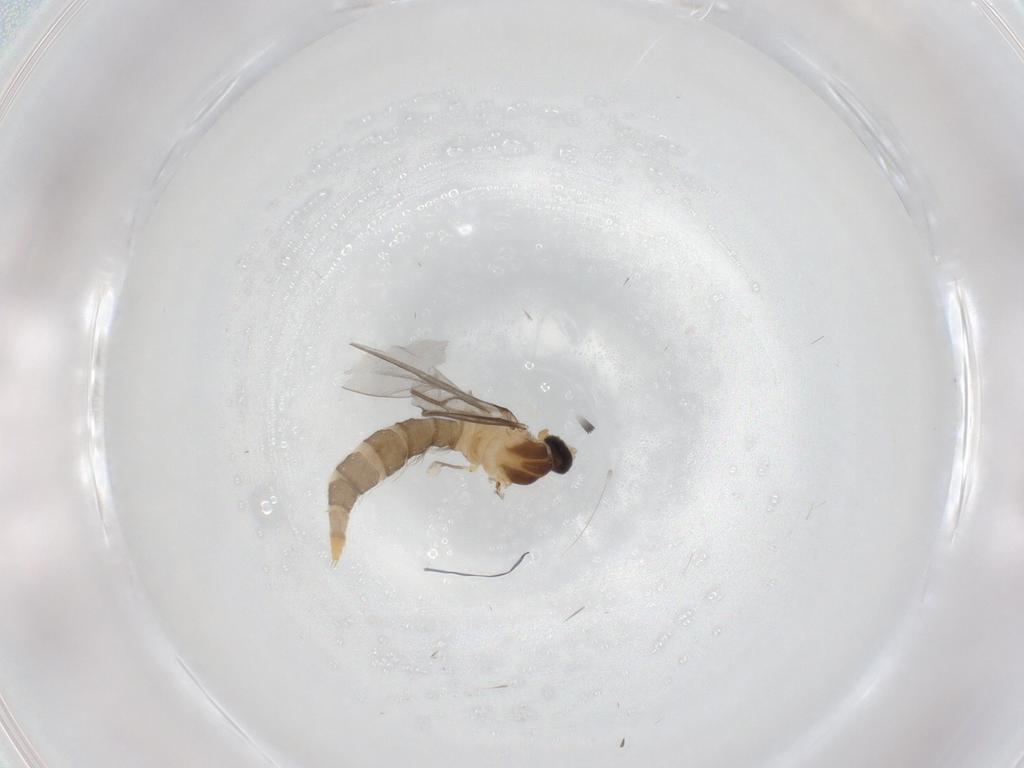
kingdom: Animalia
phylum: Arthropoda
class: Insecta
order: Diptera
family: Cecidomyiidae
